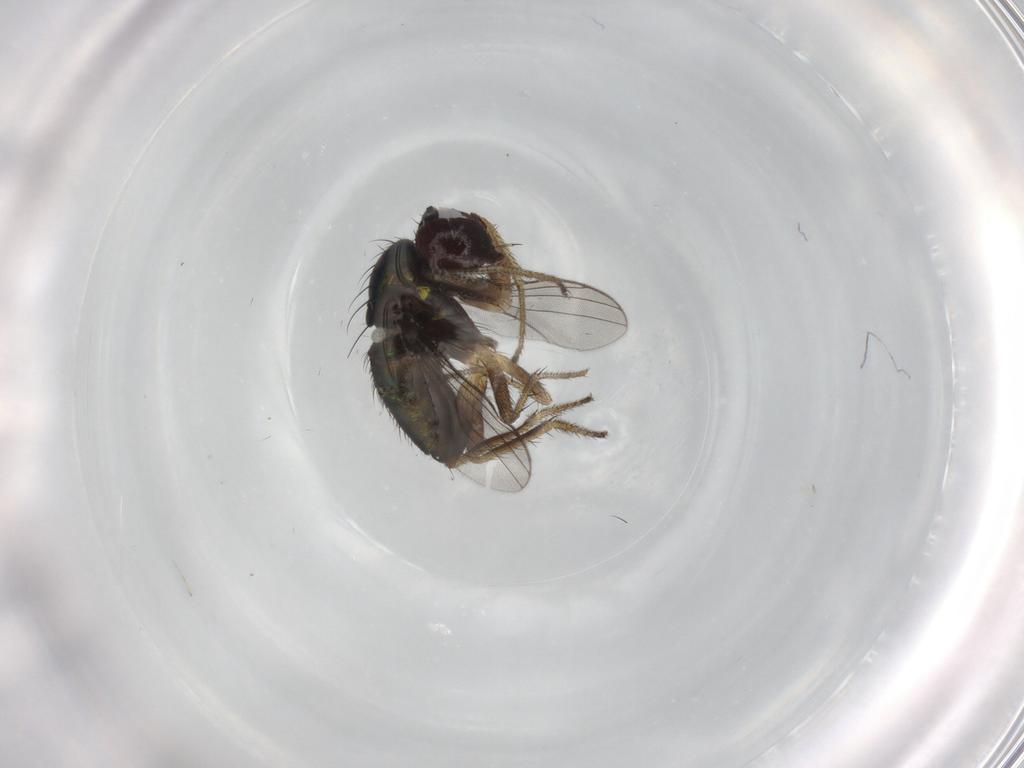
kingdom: Animalia
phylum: Arthropoda
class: Insecta
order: Diptera
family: Dolichopodidae
